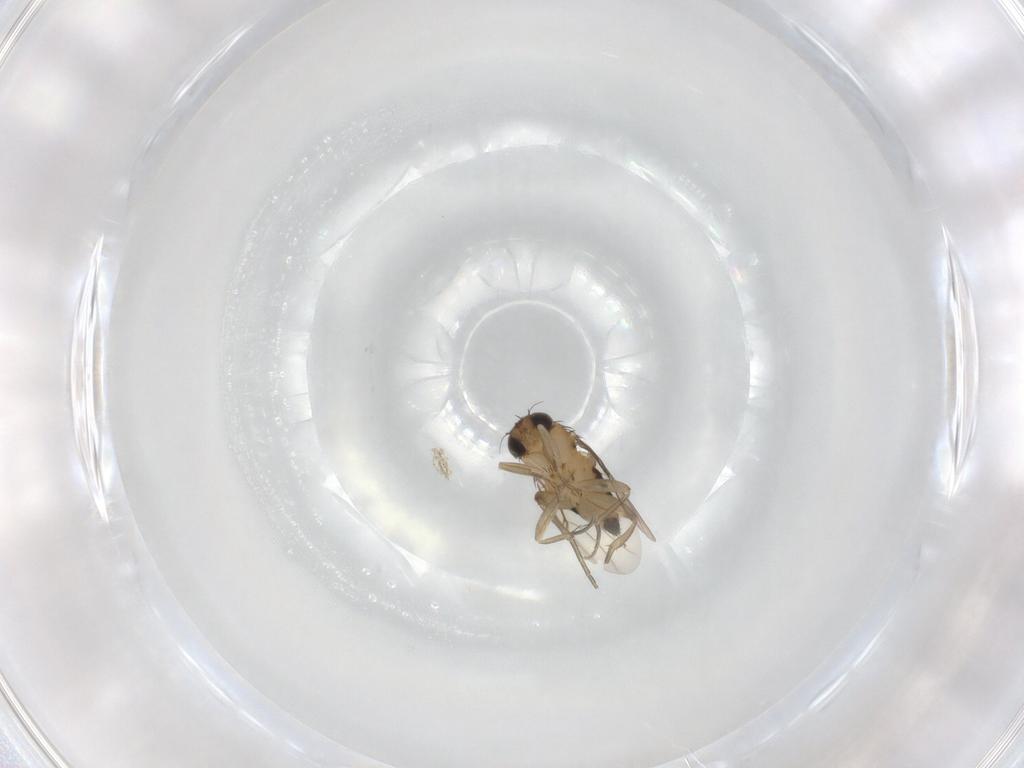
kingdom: Animalia
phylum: Arthropoda
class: Insecta
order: Diptera
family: Phoridae
